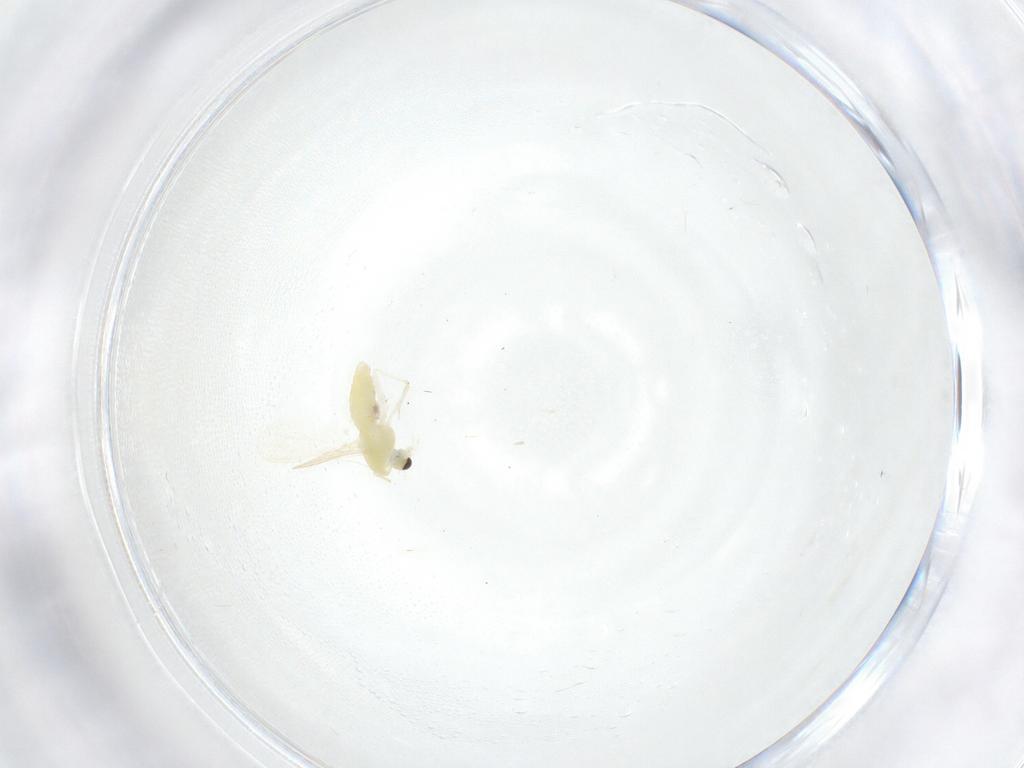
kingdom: Animalia
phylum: Arthropoda
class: Insecta
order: Diptera
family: Chironomidae
